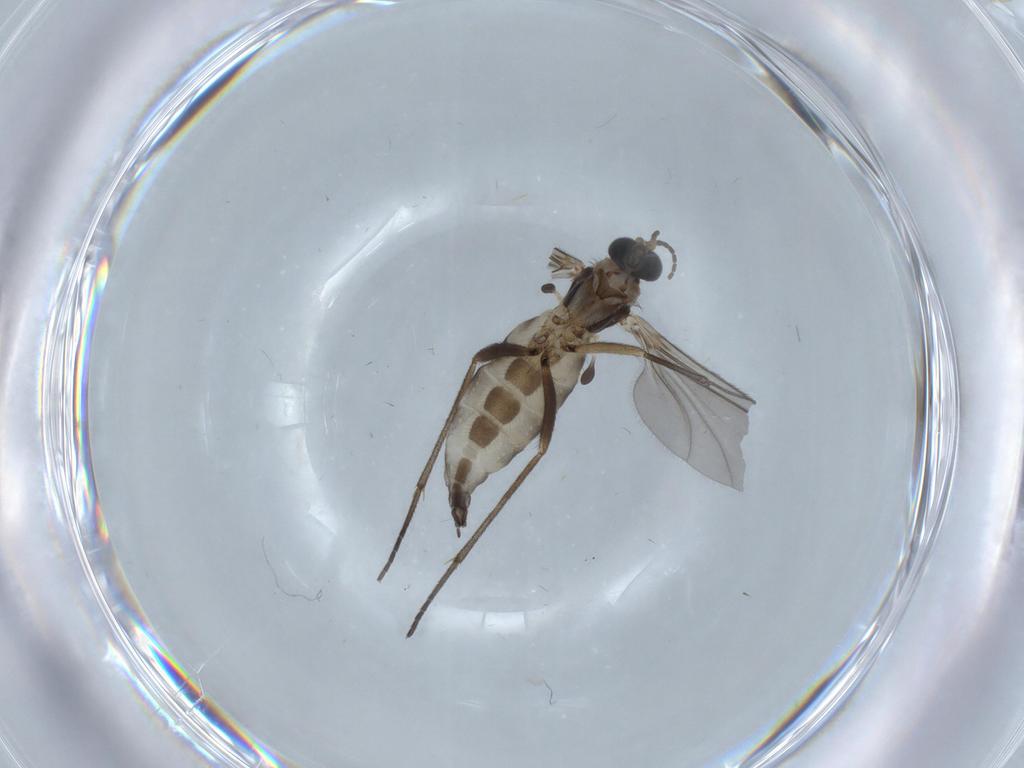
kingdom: Animalia
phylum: Arthropoda
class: Insecta
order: Diptera
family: Sciaridae
